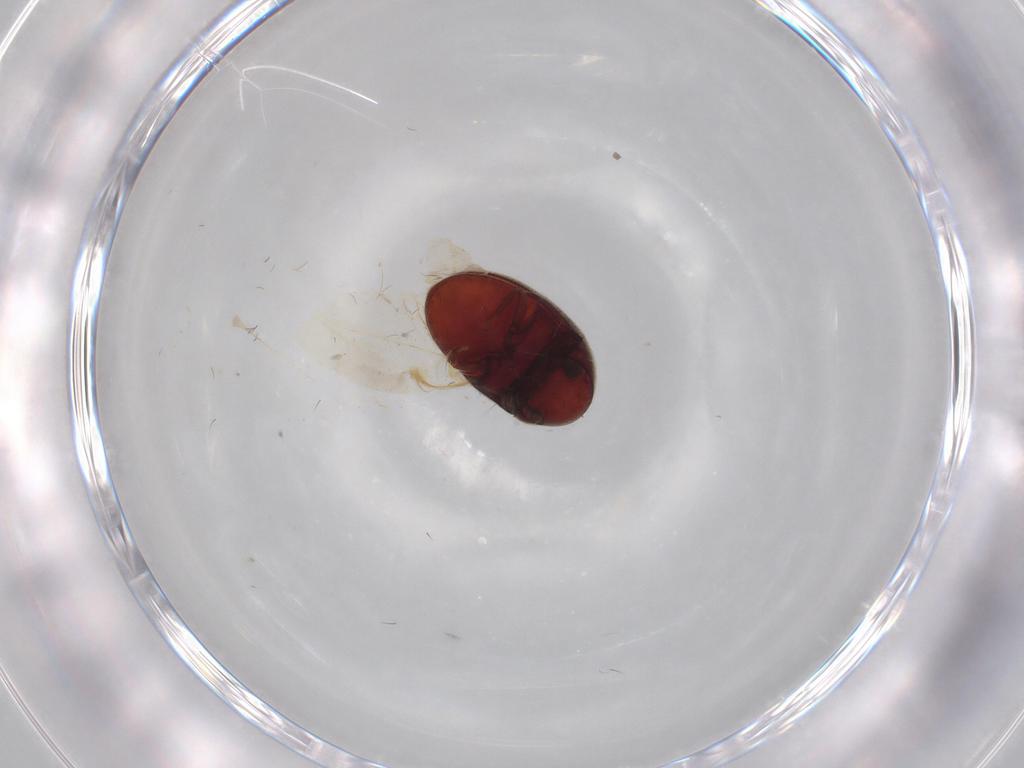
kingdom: Animalia
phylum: Arthropoda
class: Insecta
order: Coleoptera
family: Ptinidae
